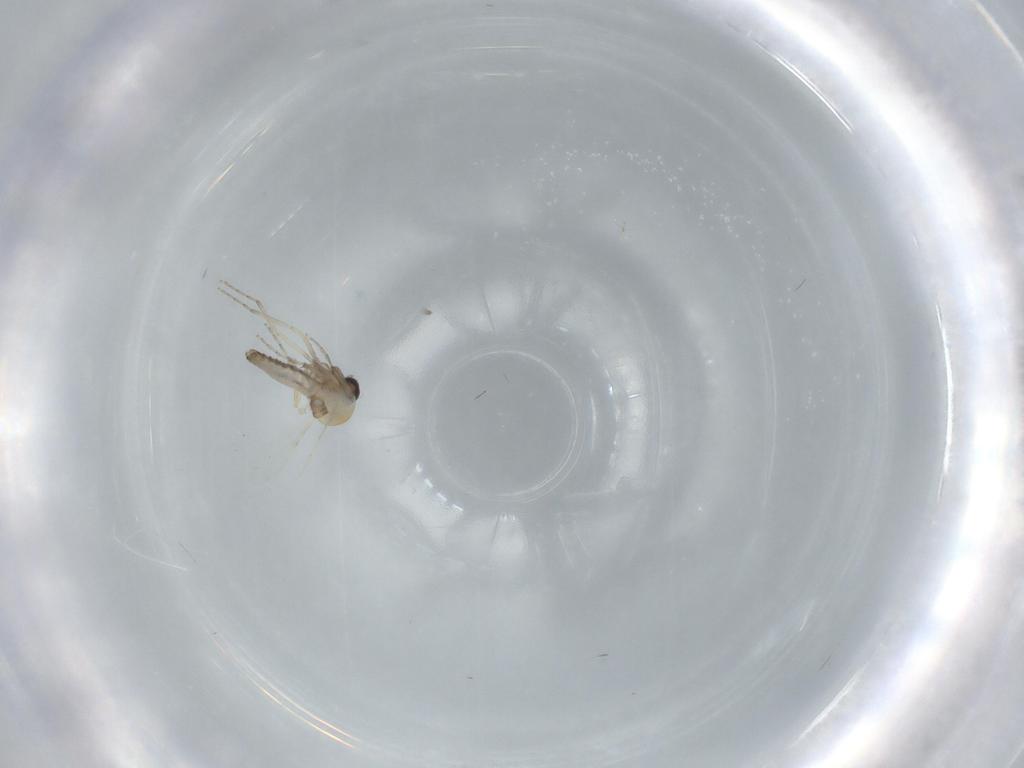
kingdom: Animalia
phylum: Arthropoda
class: Insecta
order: Diptera
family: Ceratopogonidae
